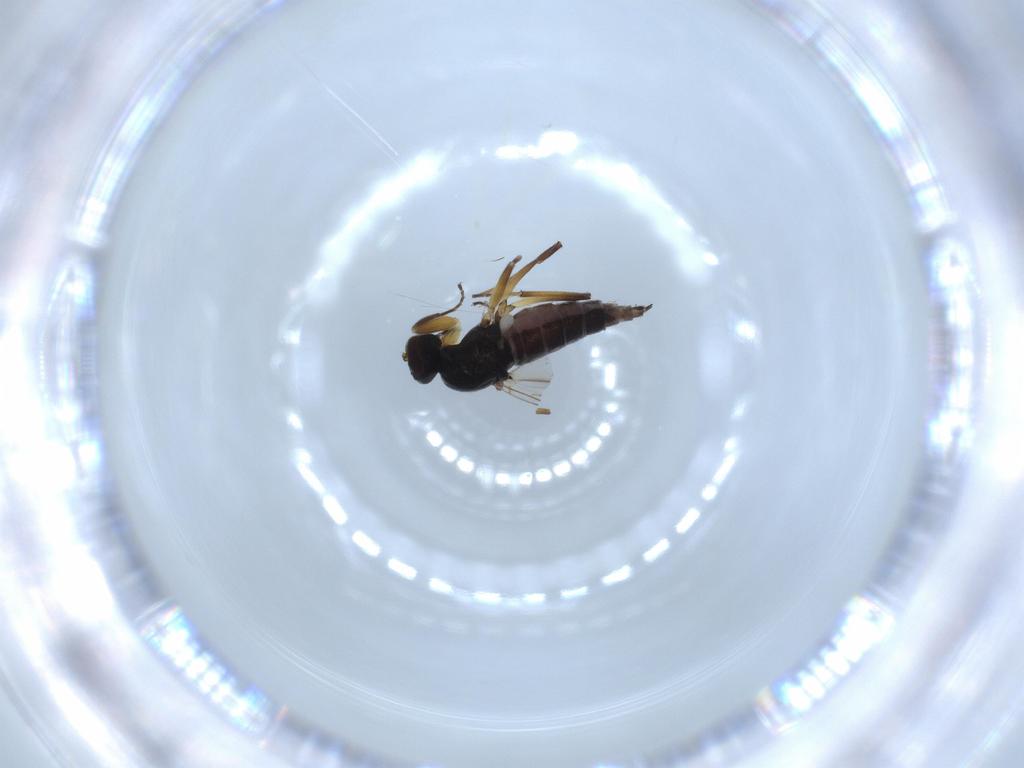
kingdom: Animalia
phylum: Arthropoda
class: Insecta
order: Diptera
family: Hybotidae
